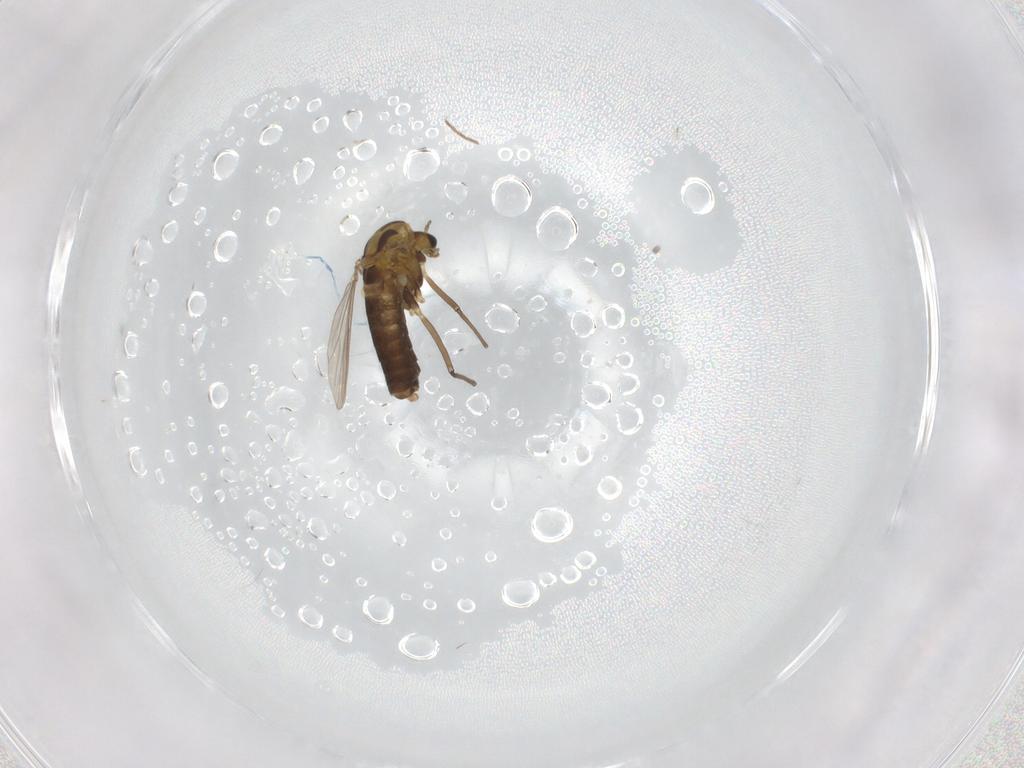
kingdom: Animalia
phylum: Arthropoda
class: Insecta
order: Diptera
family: Chironomidae
